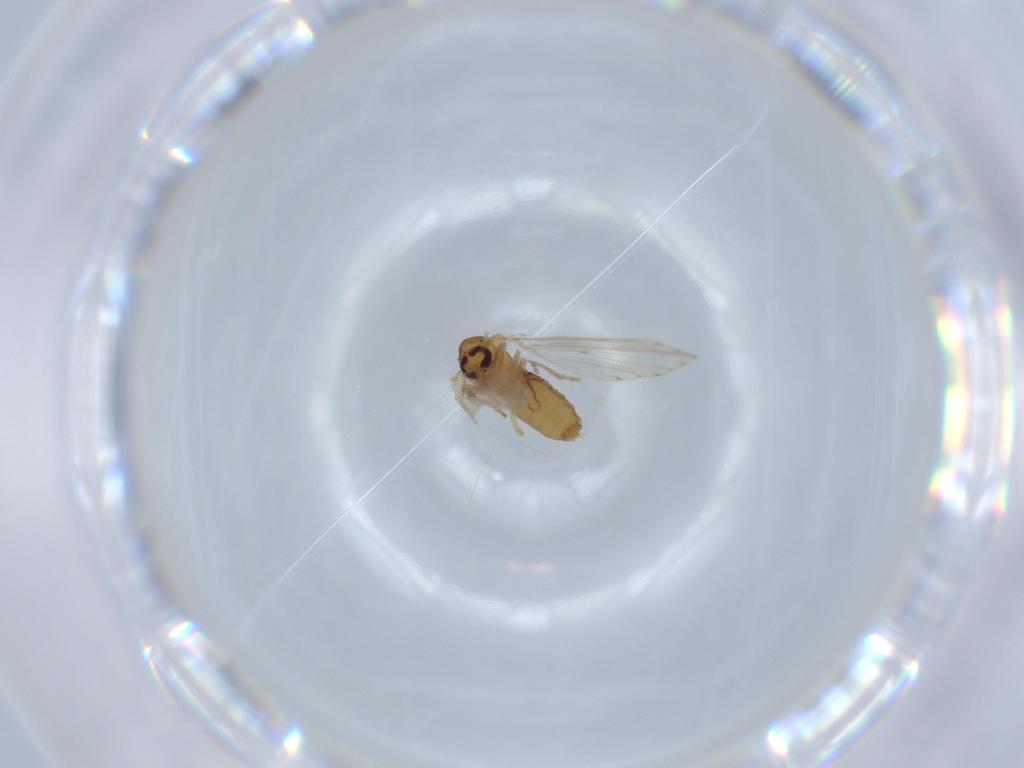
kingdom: Animalia
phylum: Arthropoda
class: Insecta
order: Diptera
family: Psychodidae
